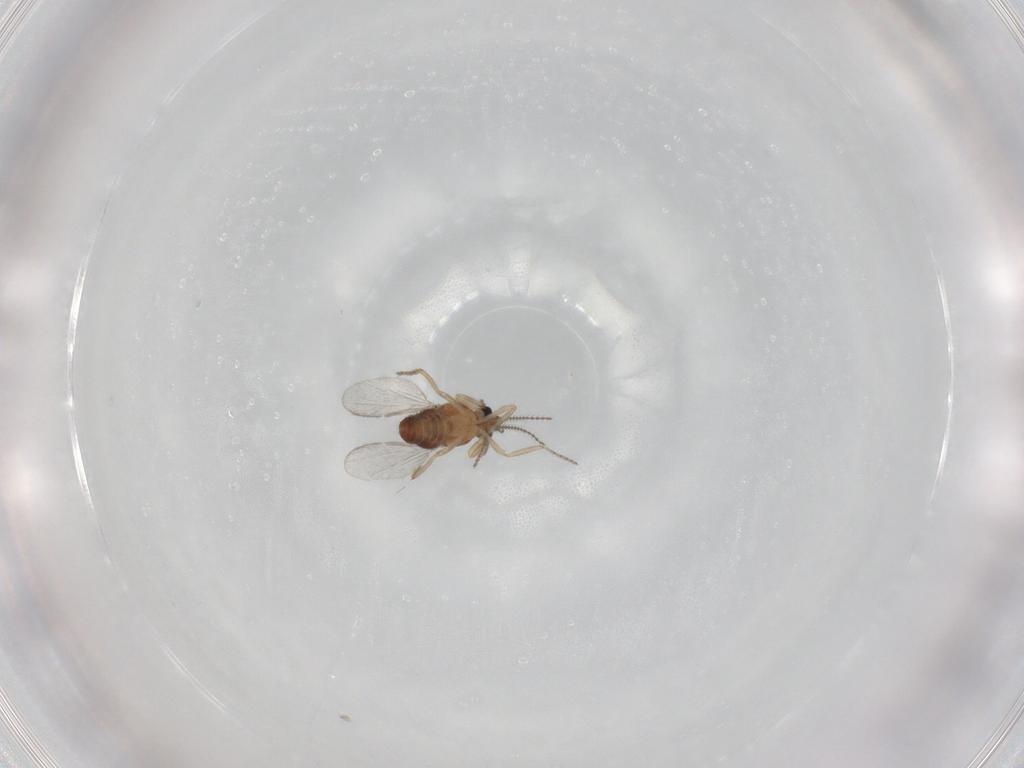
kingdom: Animalia
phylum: Arthropoda
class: Insecta
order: Diptera
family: Ceratopogonidae
